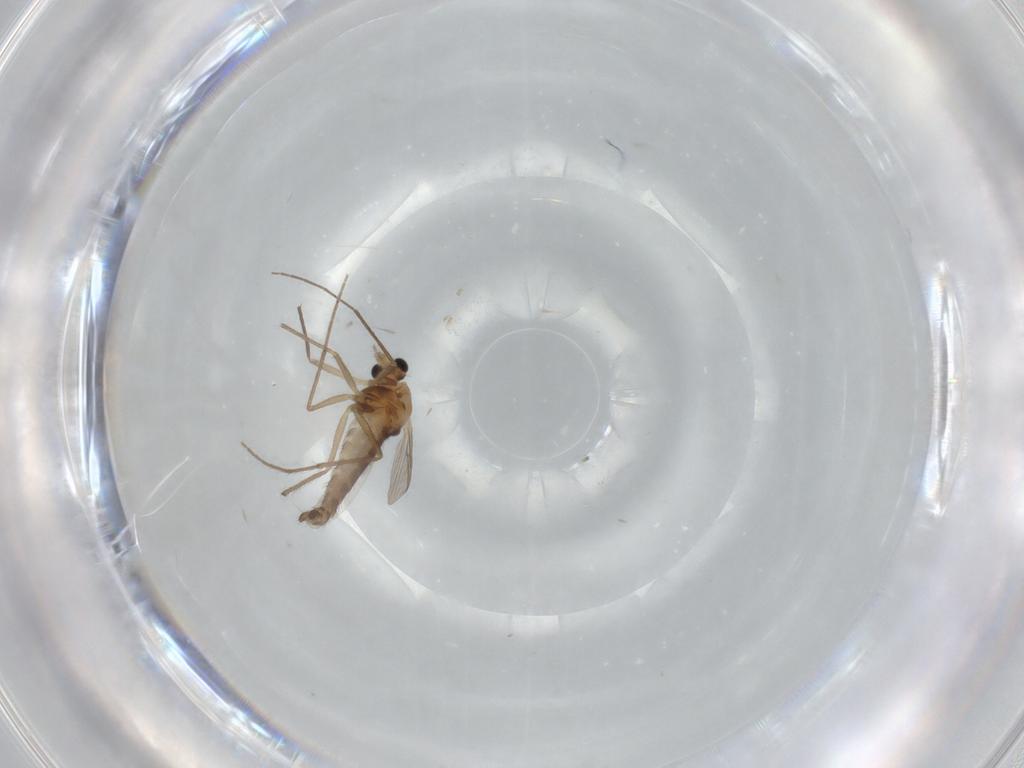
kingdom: Animalia
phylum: Arthropoda
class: Insecta
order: Diptera
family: Chironomidae
